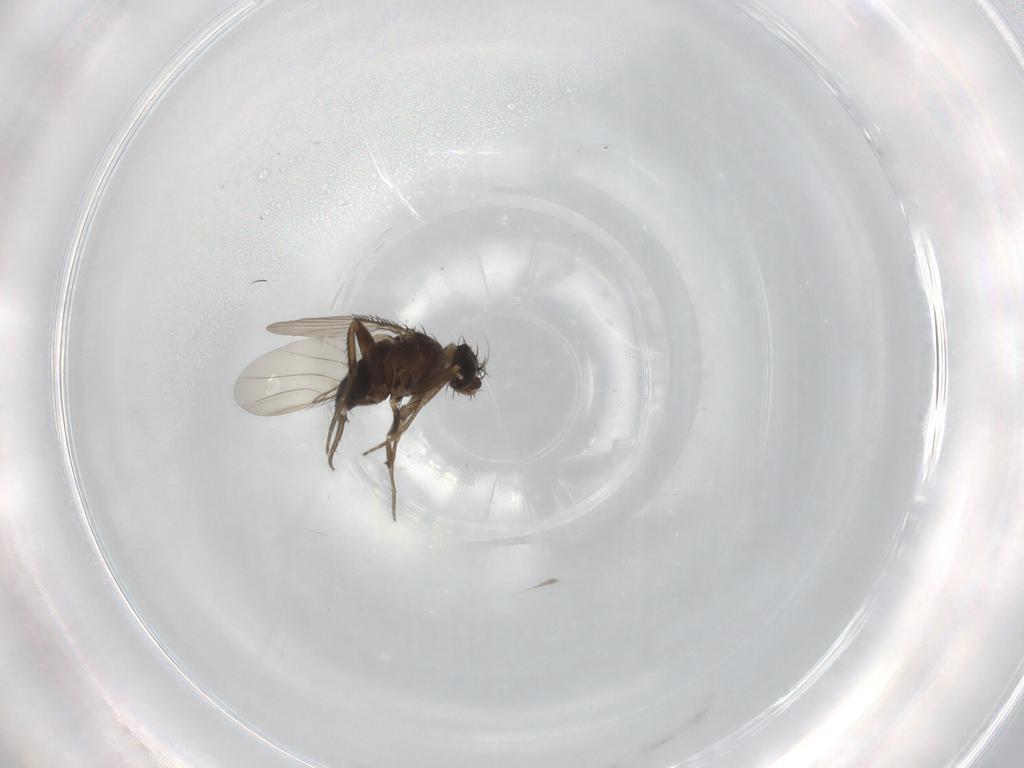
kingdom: Animalia
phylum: Arthropoda
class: Insecta
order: Diptera
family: Phoridae
